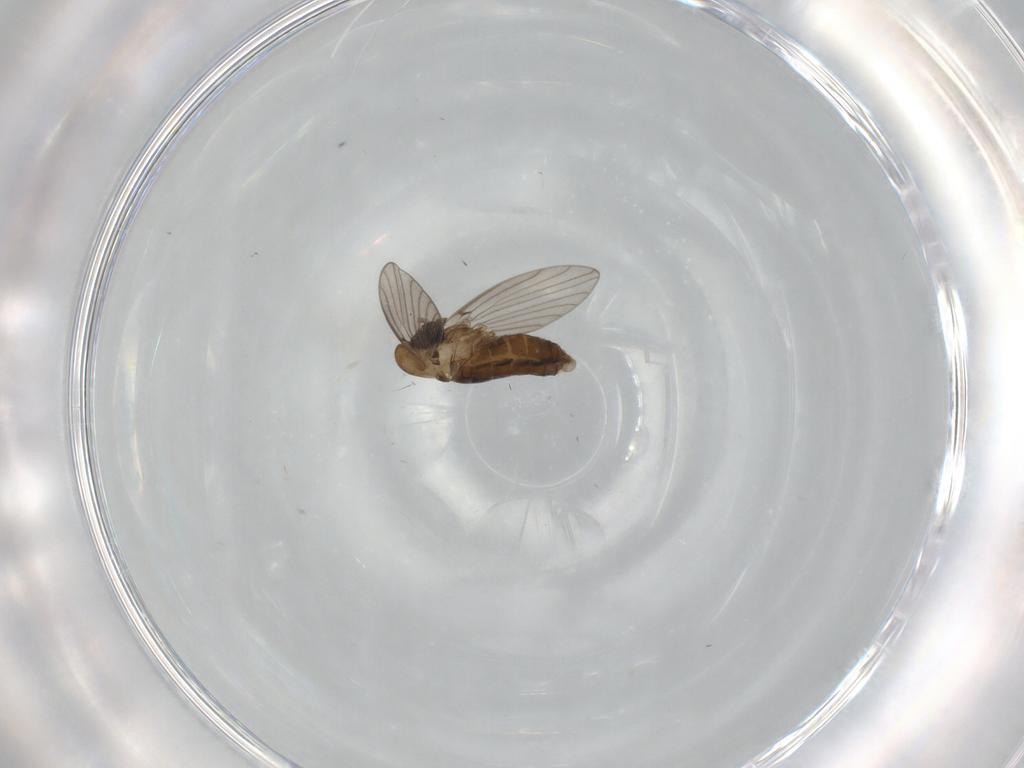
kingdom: Animalia
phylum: Arthropoda
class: Insecta
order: Diptera
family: Psychodidae
